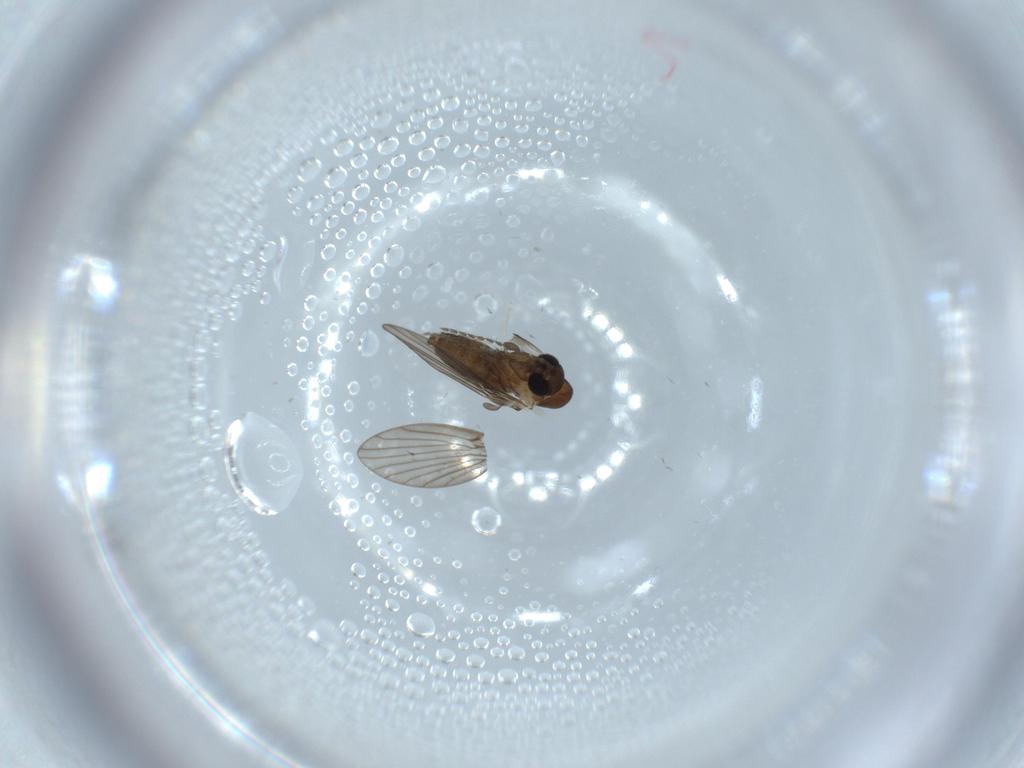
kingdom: Animalia
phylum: Arthropoda
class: Insecta
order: Diptera
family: Psychodidae
